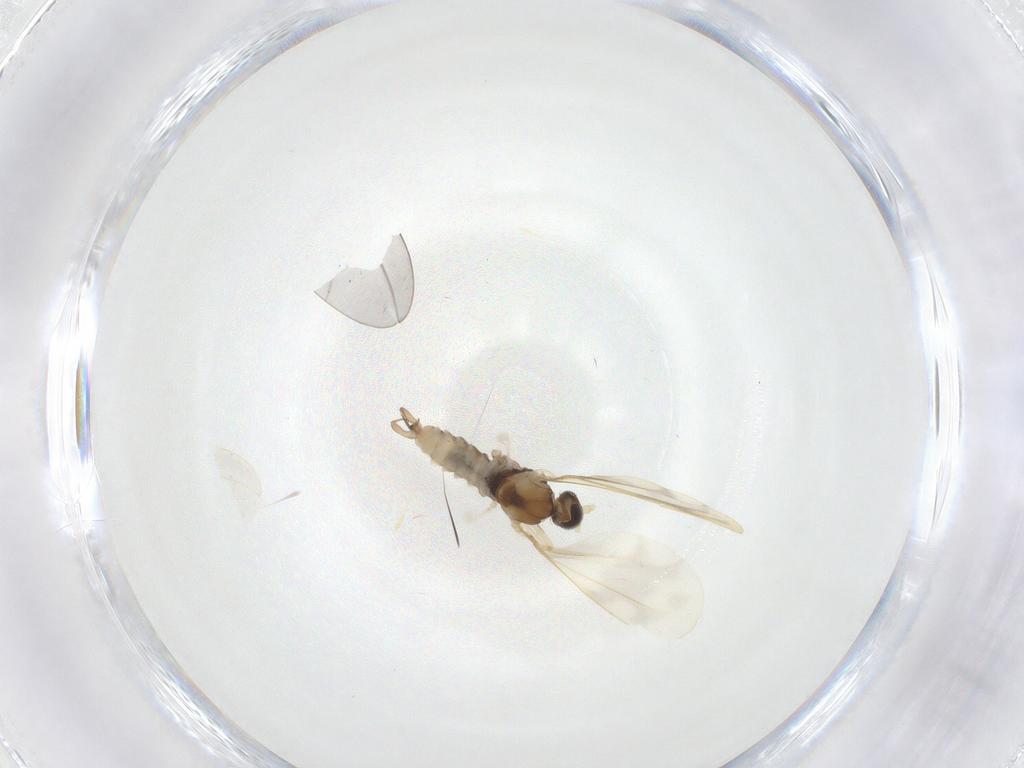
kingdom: Animalia
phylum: Arthropoda
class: Insecta
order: Diptera
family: Cecidomyiidae
